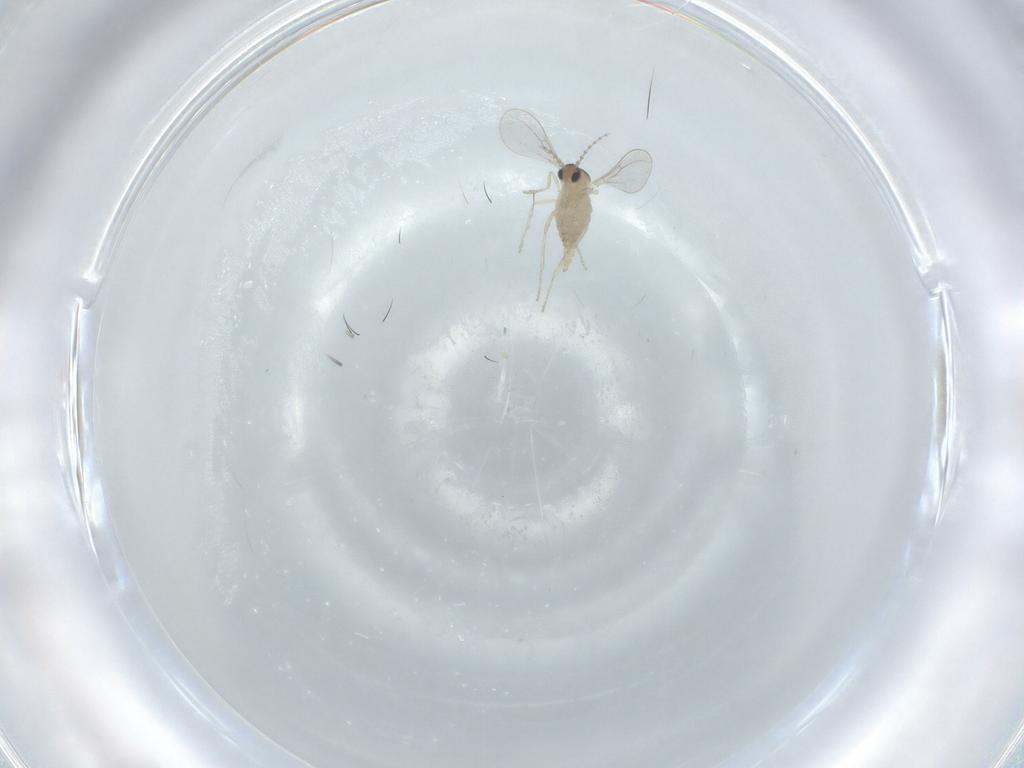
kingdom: Animalia
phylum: Arthropoda
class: Insecta
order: Diptera
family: Cecidomyiidae
